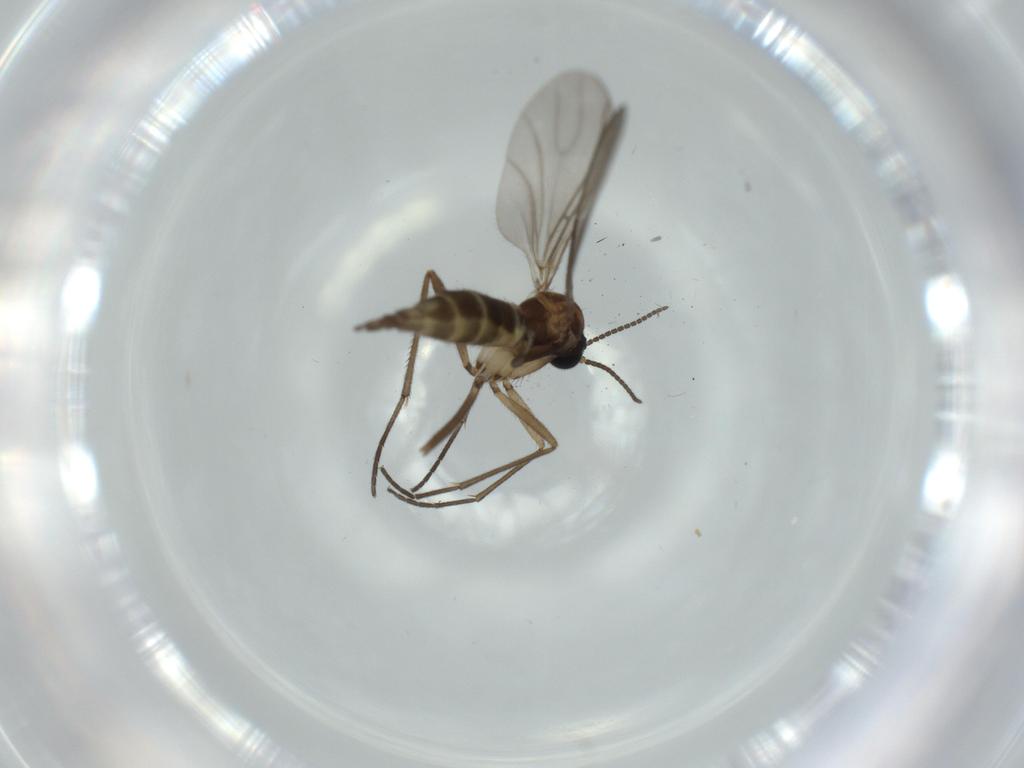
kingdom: Animalia
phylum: Arthropoda
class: Insecta
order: Diptera
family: Sciaridae
